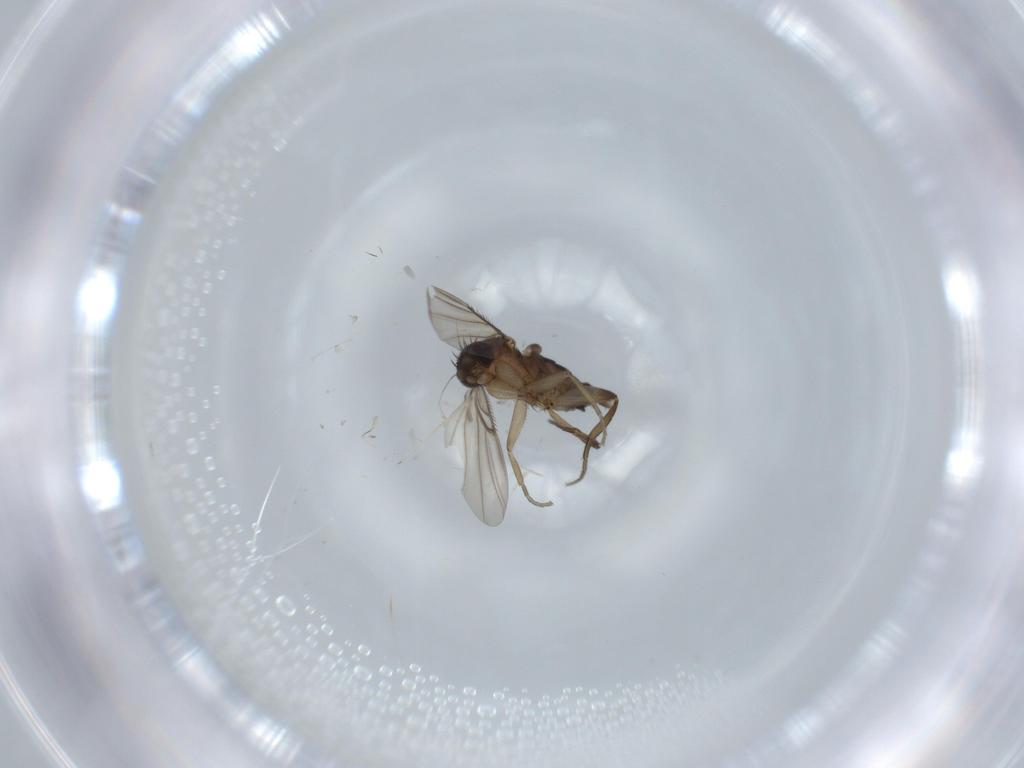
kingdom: Animalia
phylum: Arthropoda
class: Insecta
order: Diptera
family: Phoridae
